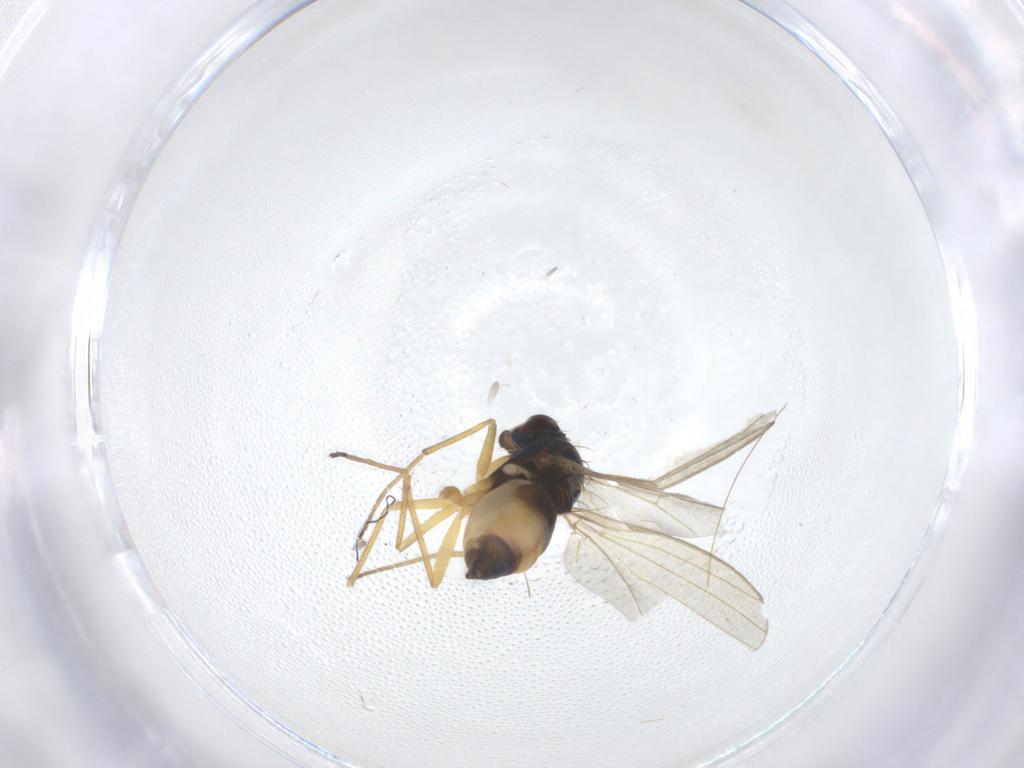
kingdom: Animalia
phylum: Arthropoda
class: Insecta
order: Diptera
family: Dolichopodidae
